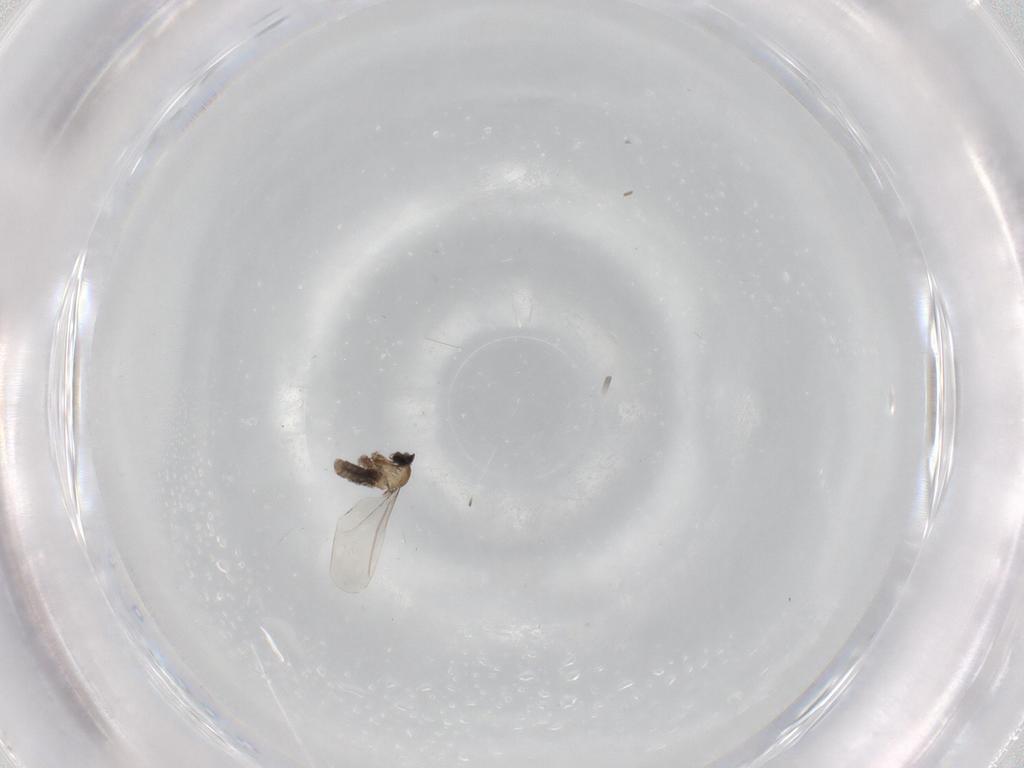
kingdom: Animalia
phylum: Arthropoda
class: Insecta
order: Diptera
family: Cecidomyiidae
